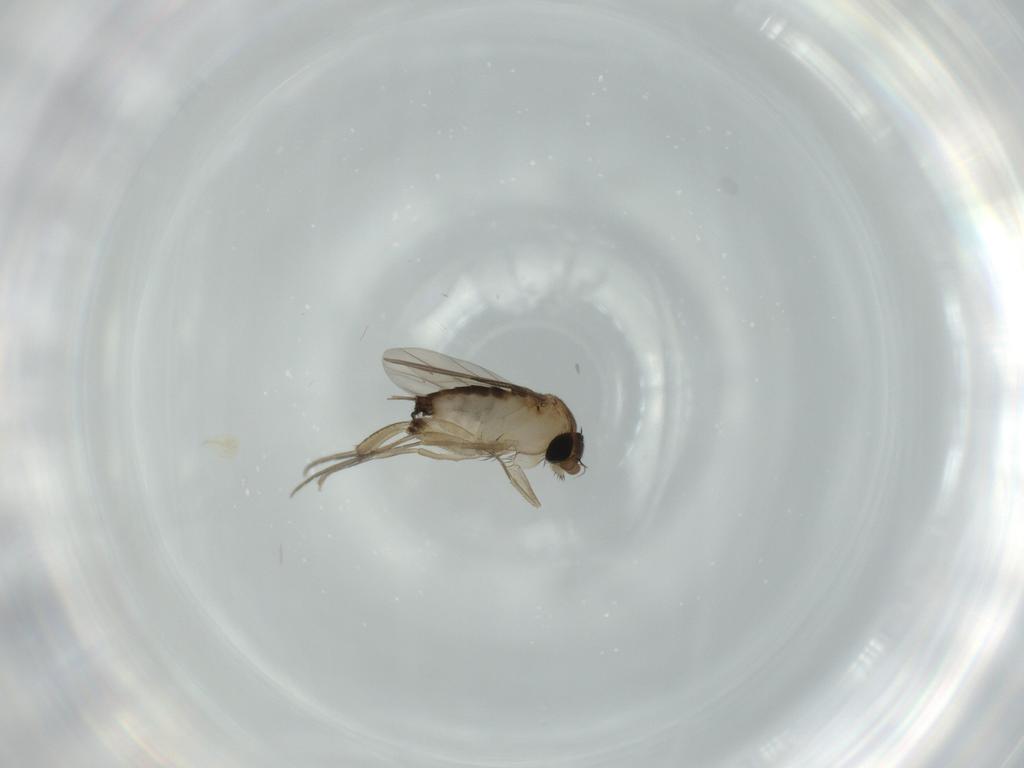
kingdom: Animalia
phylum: Arthropoda
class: Insecta
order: Diptera
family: Phoridae
